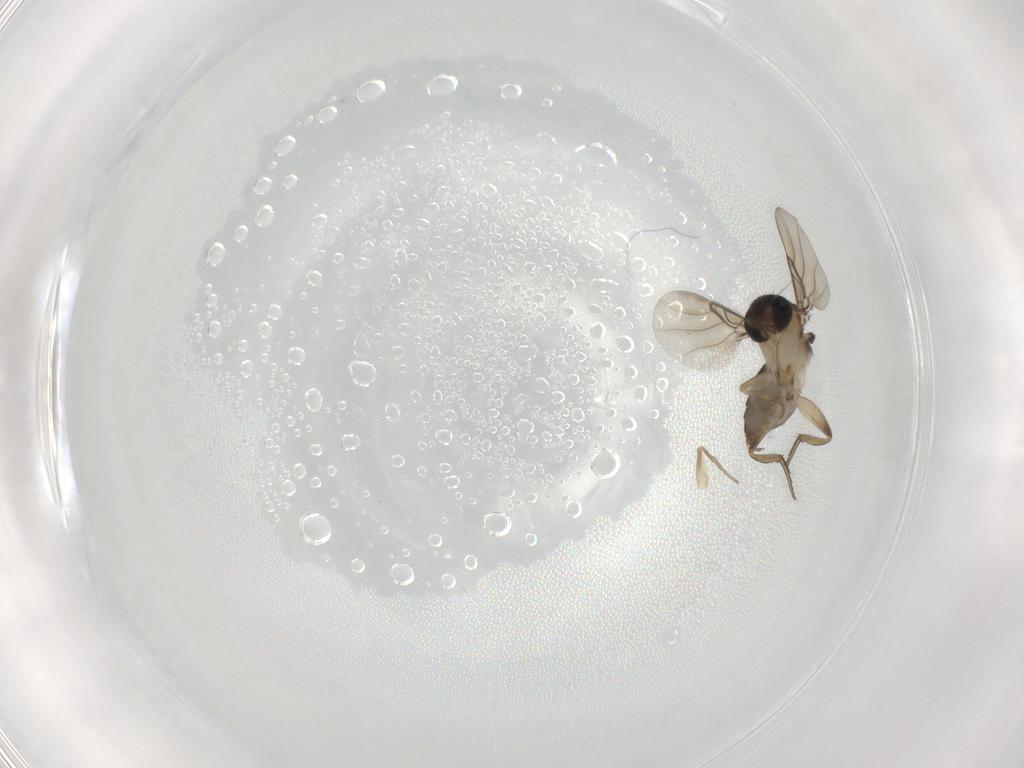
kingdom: Animalia
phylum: Arthropoda
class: Insecta
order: Diptera
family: Phoridae
